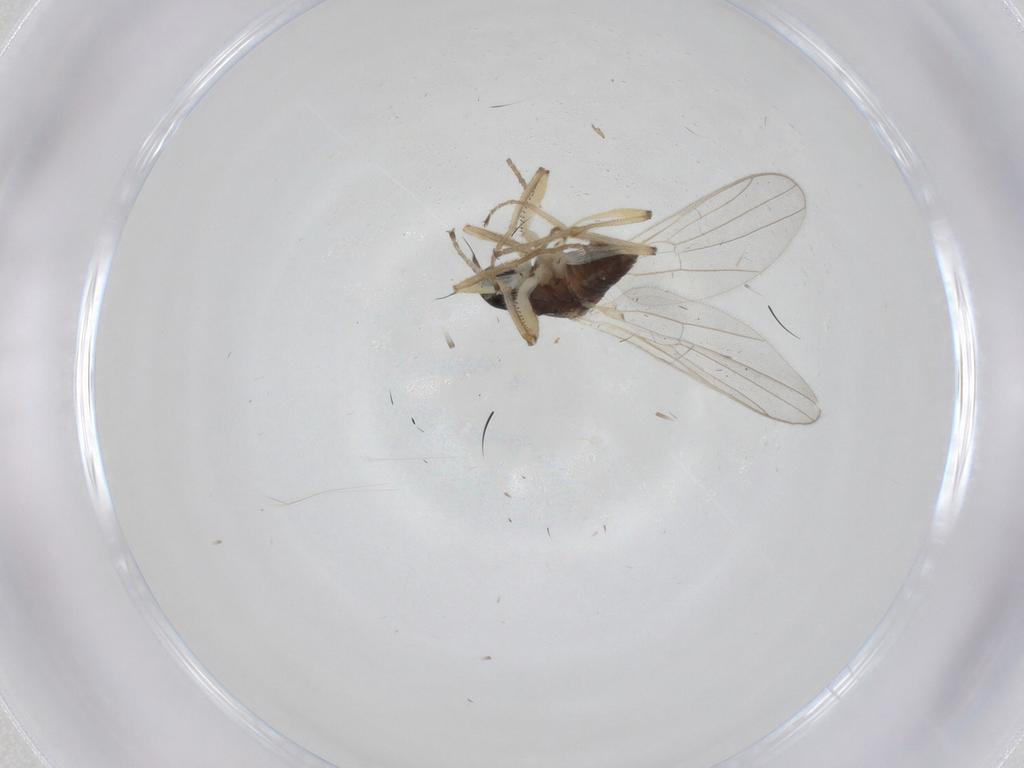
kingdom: Animalia
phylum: Arthropoda
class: Insecta
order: Diptera
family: Hybotidae
